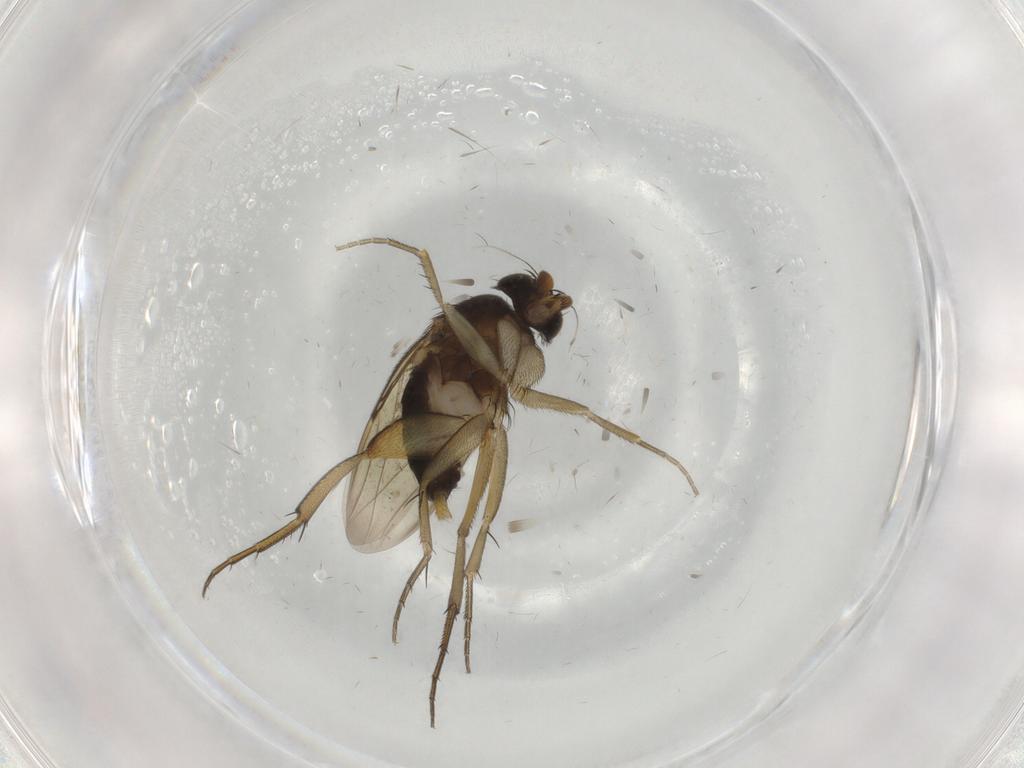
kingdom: Animalia
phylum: Arthropoda
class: Insecta
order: Diptera
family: Phoridae
